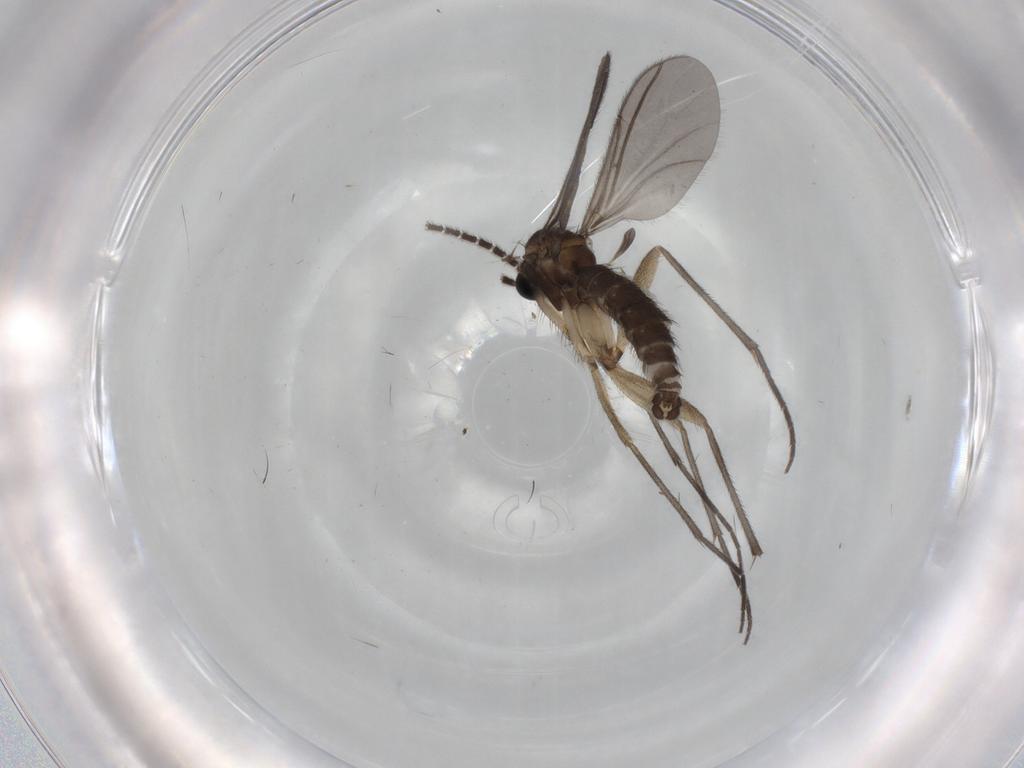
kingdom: Animalia
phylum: Arthropoda
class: Insecta
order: Diptera
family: Sciaridae
